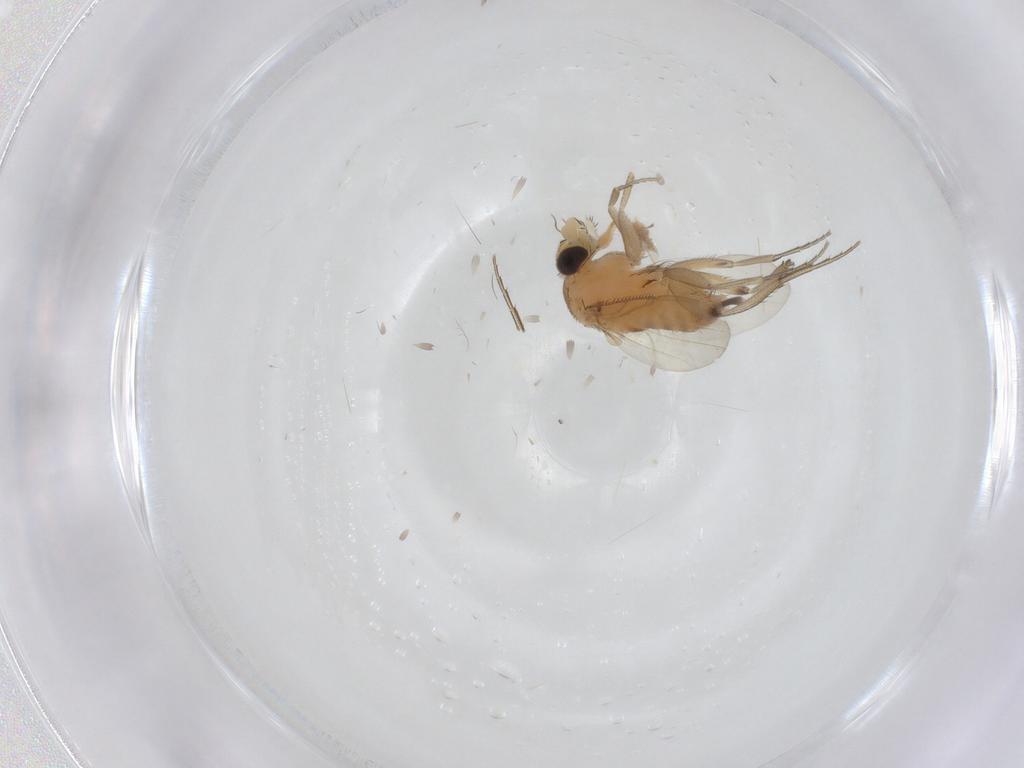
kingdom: Animalia
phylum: Arthropoda
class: Insecta
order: Diptera
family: Cecidomyiidae
